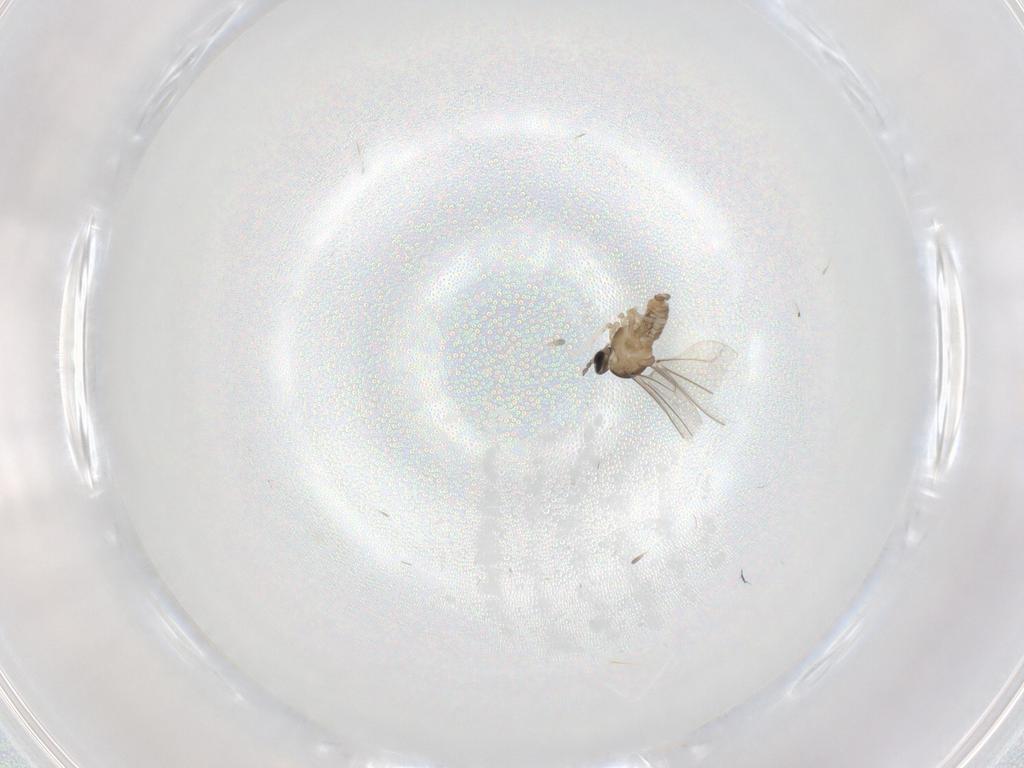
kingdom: Animalia
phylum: Arthropoda
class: Insecta
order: Diptera
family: Cecidomyiidae
